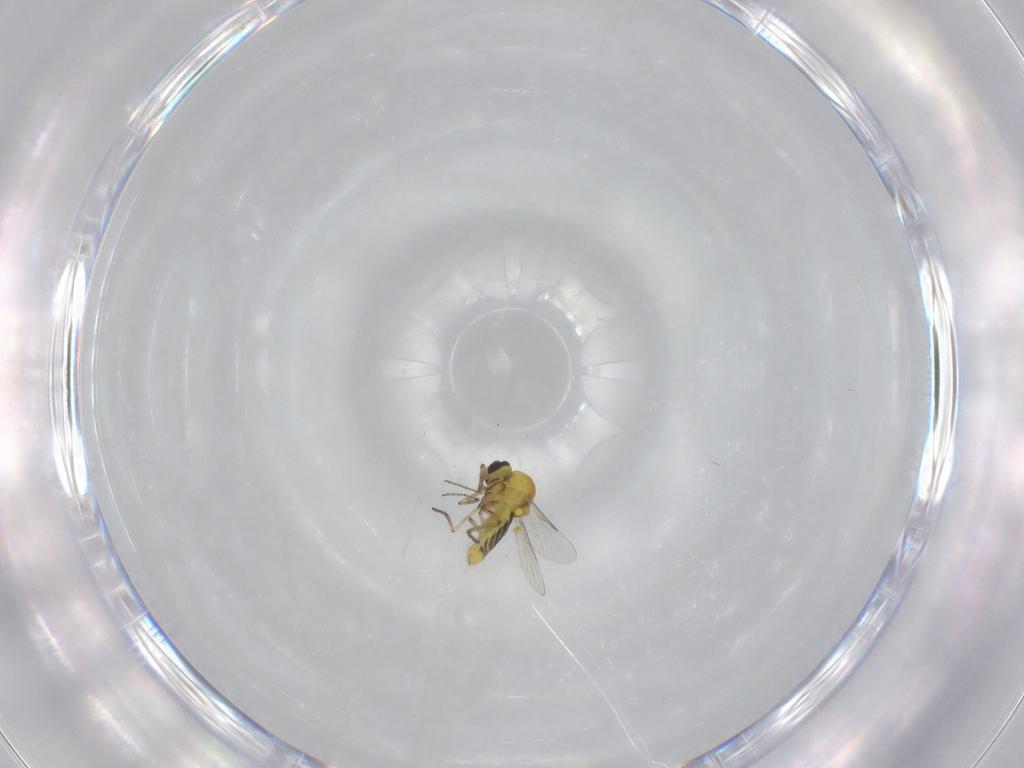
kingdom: Animalia
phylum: Arthropoda
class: Insecta
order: Diptera
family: Ceratopogonidae
